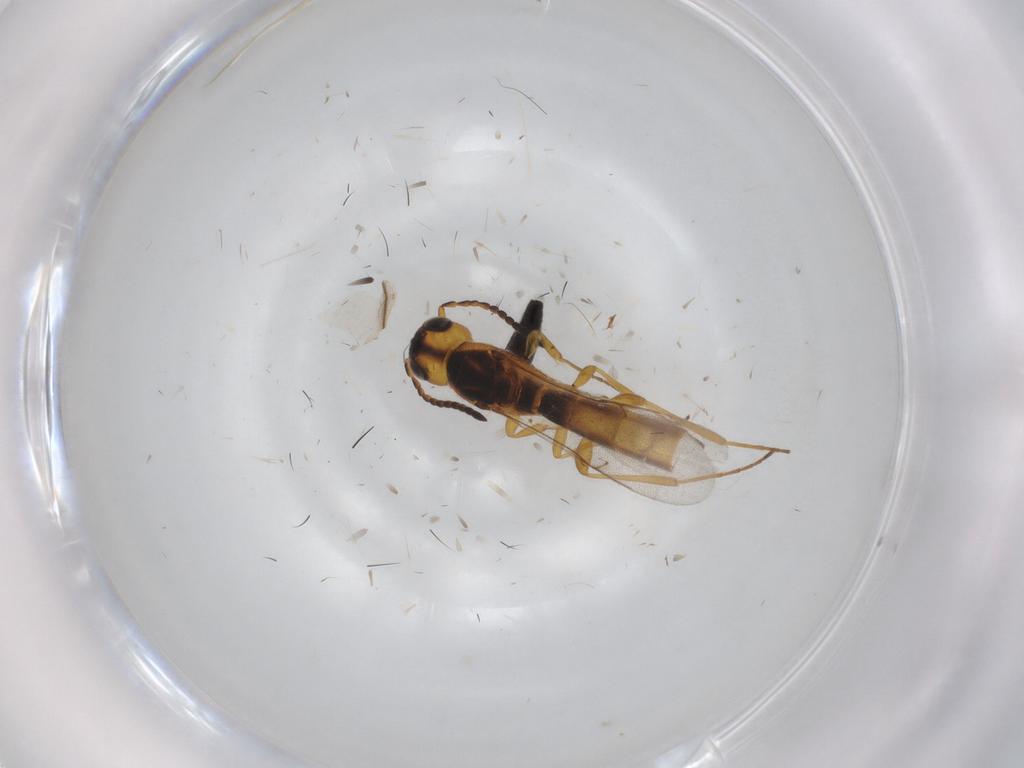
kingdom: Animalia
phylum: Arthropoda
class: Insecta
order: Hymenoptera
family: Scelionidae
